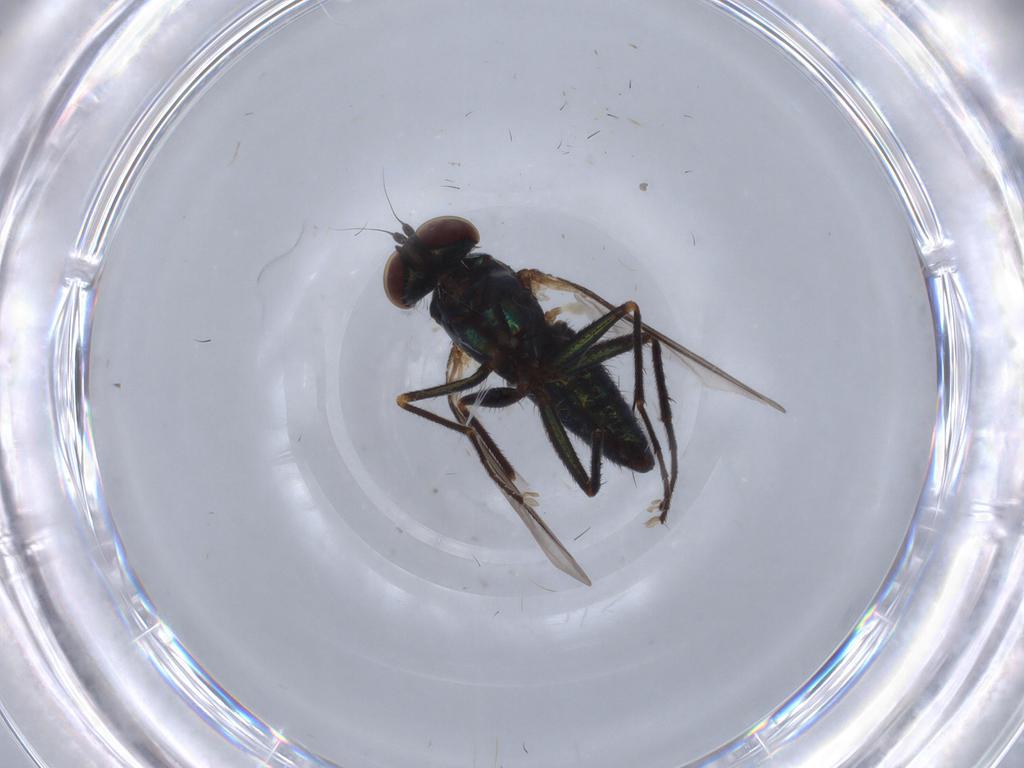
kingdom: Animalia
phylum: Arthropoda
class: Insecta
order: Diptera
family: Dolichopodidae
